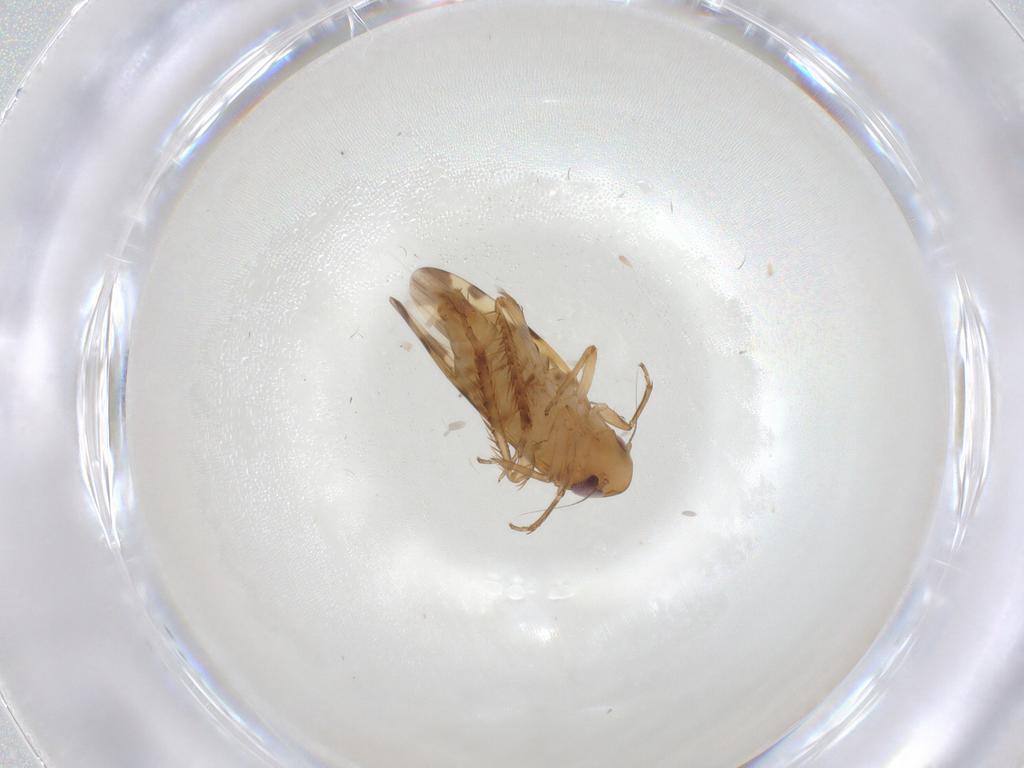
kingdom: Animalia
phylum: Arthropoda
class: Insecta
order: Hemiptera
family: Cicadellidae
